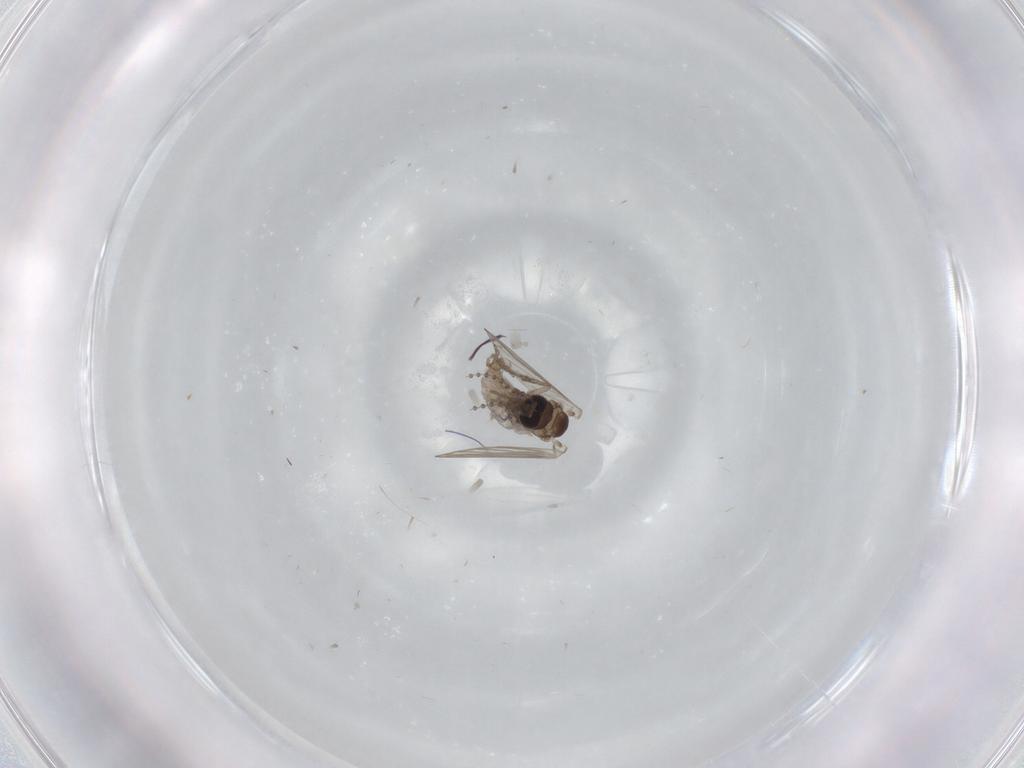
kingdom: Animalia
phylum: Arthropoda
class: Insecta
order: Diptera
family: Psychodidae
